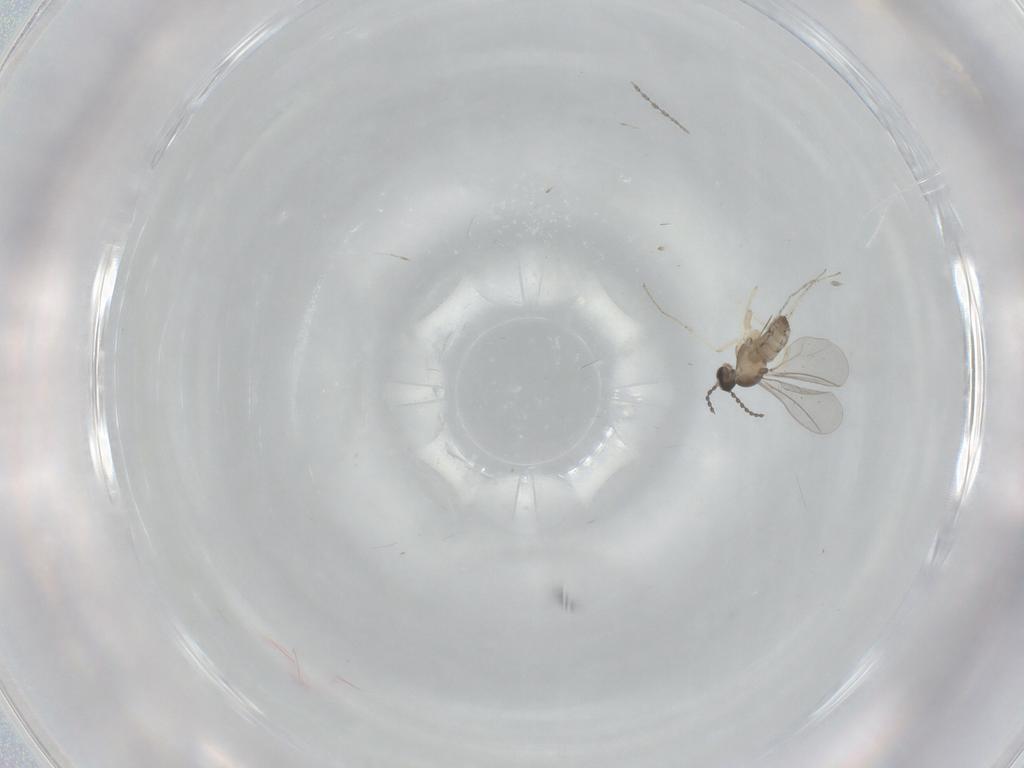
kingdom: Animalia
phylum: Arthropoda
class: Insecta
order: Diptera
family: Cecidomyiidae
